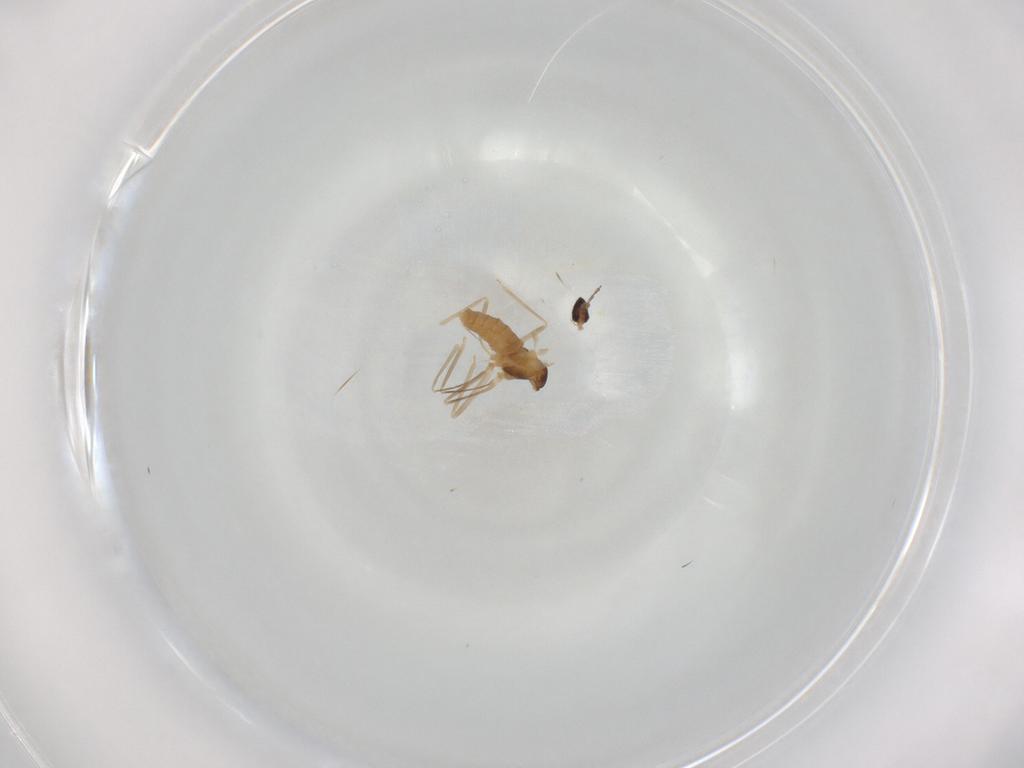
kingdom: Animalia
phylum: Arthropoda
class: Insecta
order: Diptera
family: Cecidomyiidae
